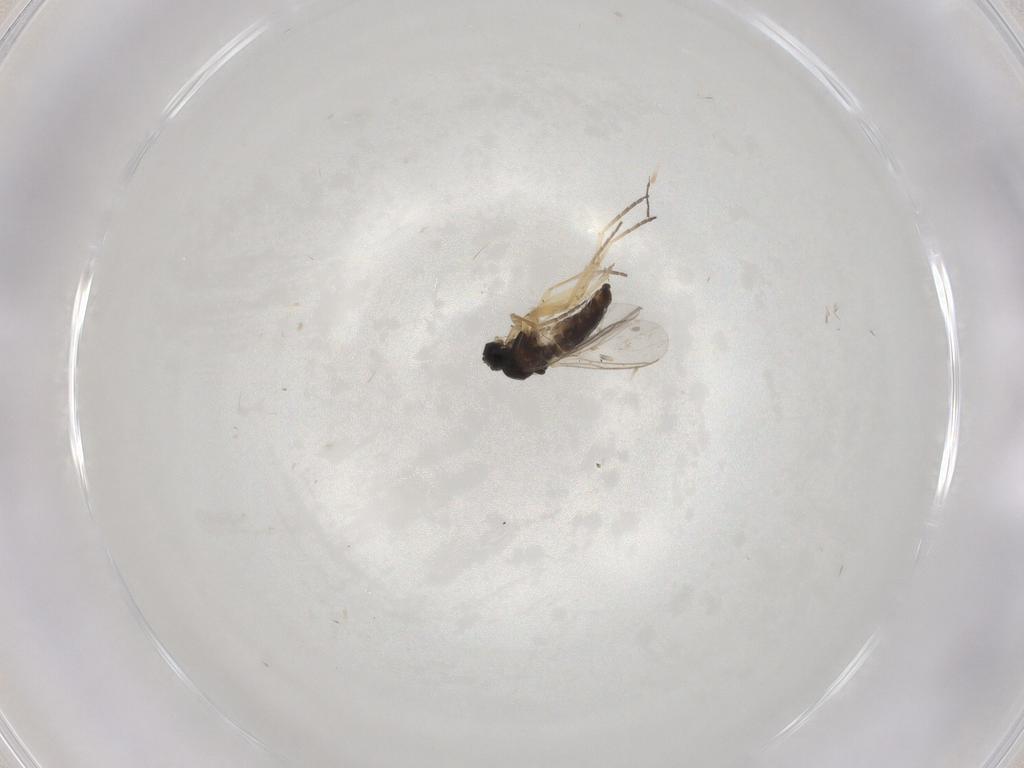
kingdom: Animalia
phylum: Arthropoda
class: Insecta
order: Diptera
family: Sciaridae
